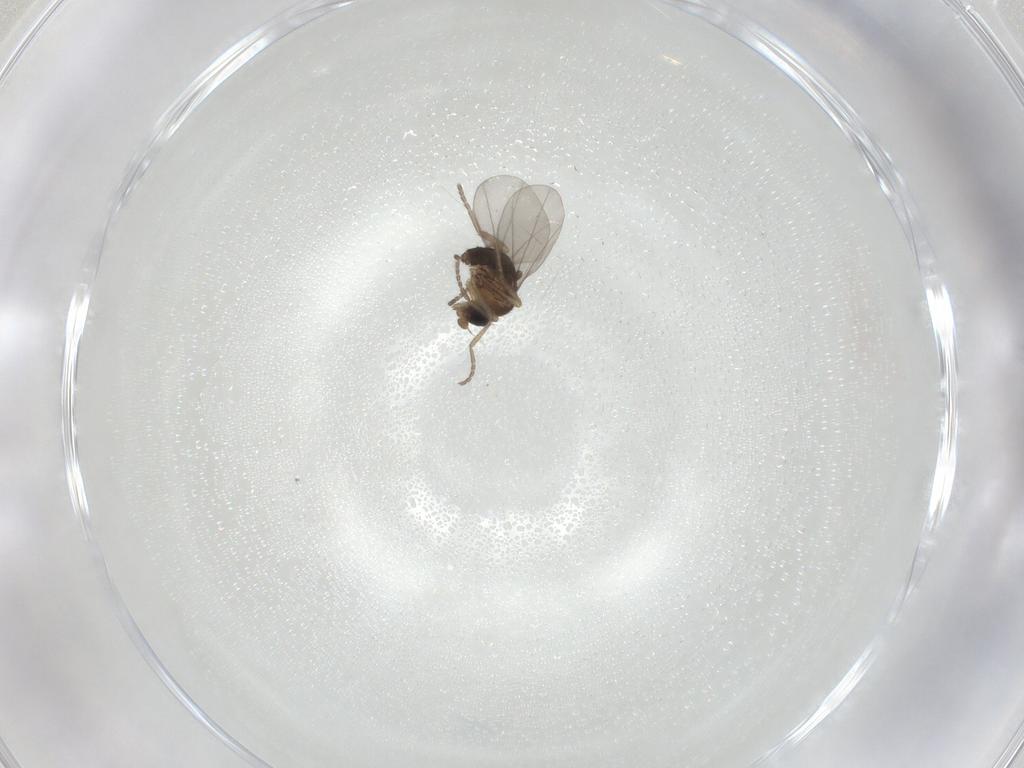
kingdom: Animalia
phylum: Arthropoda
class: Insecta
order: Diptera
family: Phoridae
